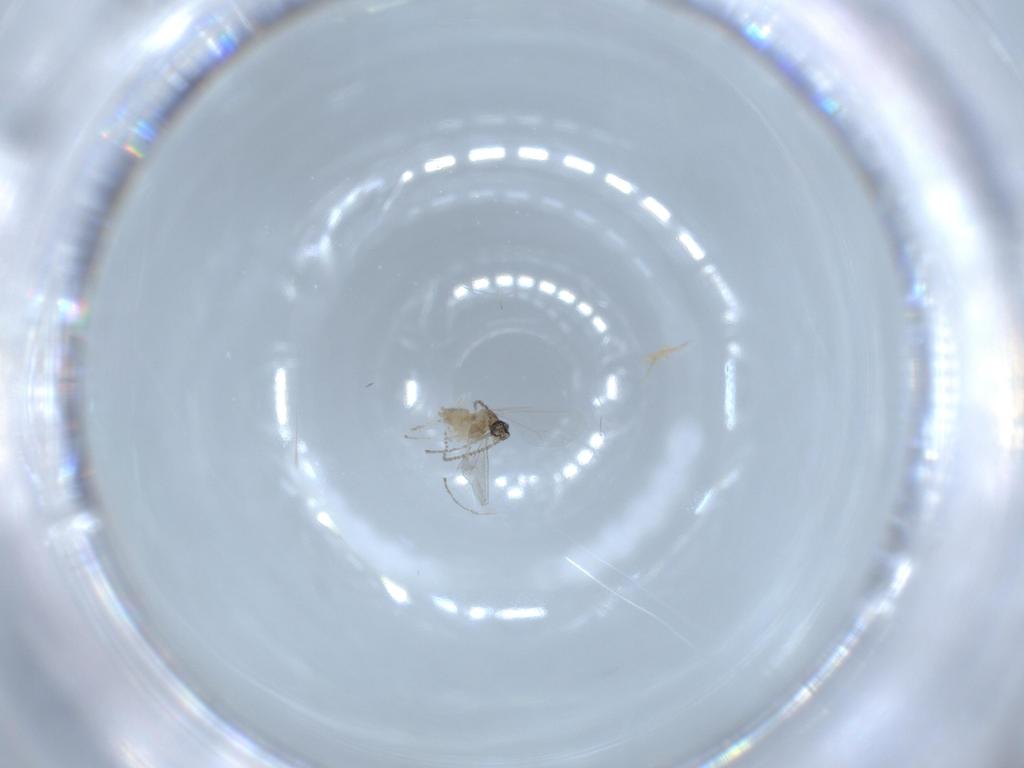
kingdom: Animalia
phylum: Arthropoda
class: Insecta
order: Diptera
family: Cecidomyiidae
